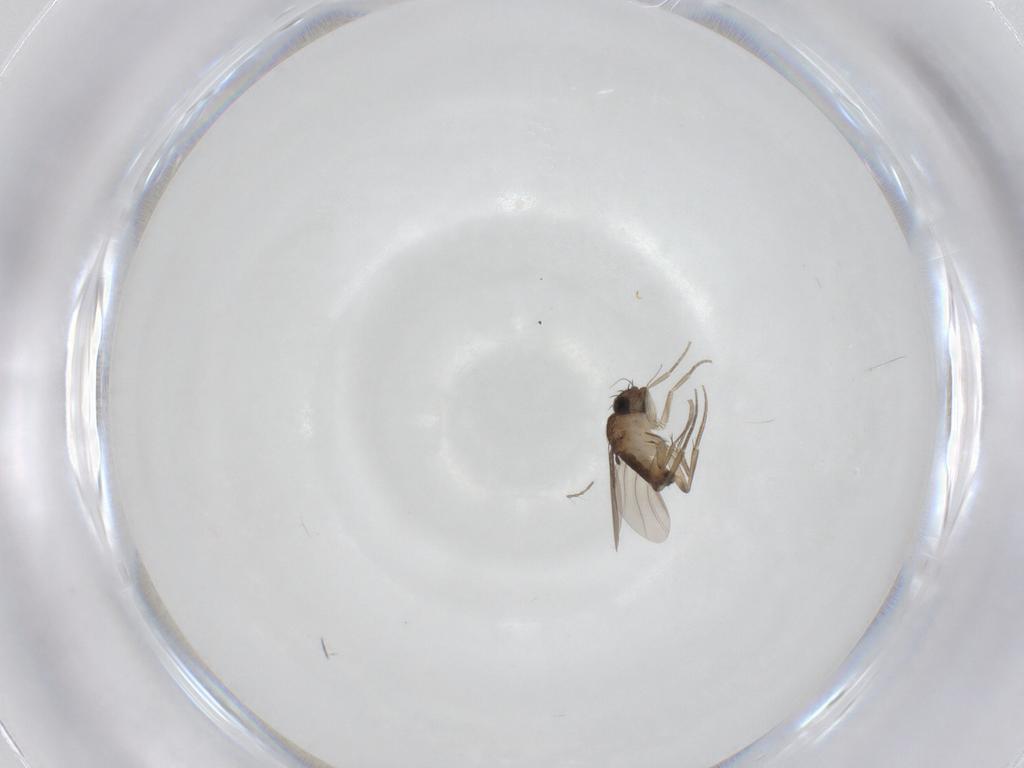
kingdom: Animalia
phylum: Arthropoda
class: Insecta
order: Diptera
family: Phoridae
